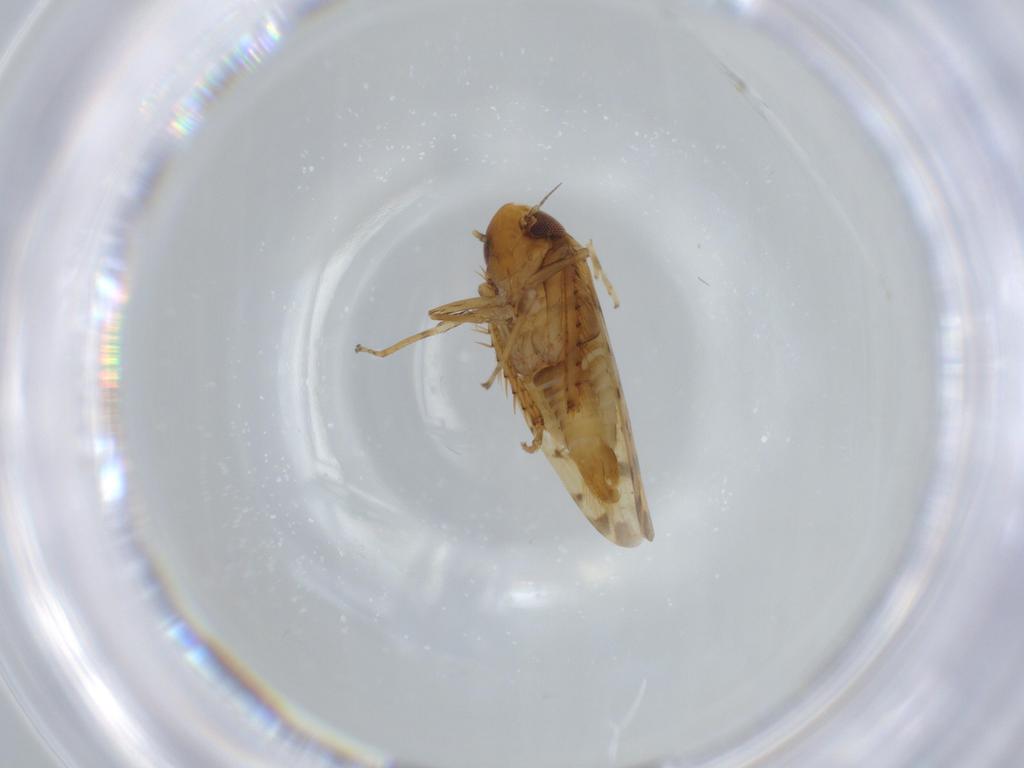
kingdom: Animalia
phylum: Arthropoda
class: Insecta
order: Hemiptera
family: Cicadellidae
